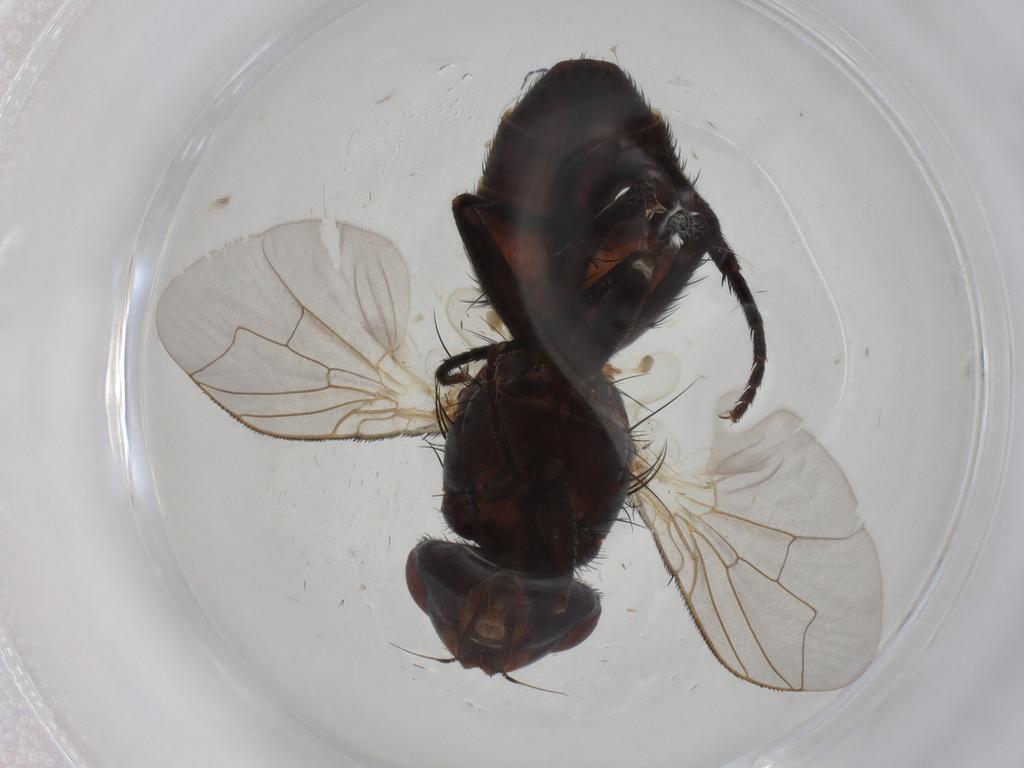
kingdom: Animalia
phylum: Arthropoda
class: Insecta
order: Diptera
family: Sarcophagidae
